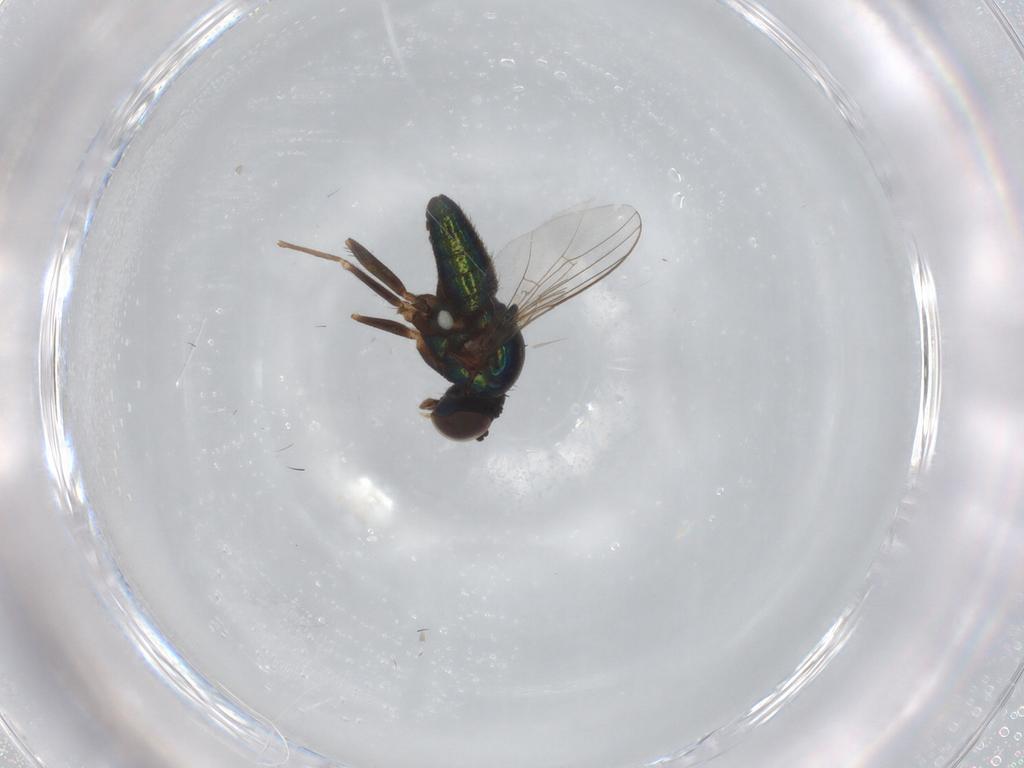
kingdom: Animalia
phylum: Arthropoda
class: Insecta
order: Diptera
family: Dolichopodidae
